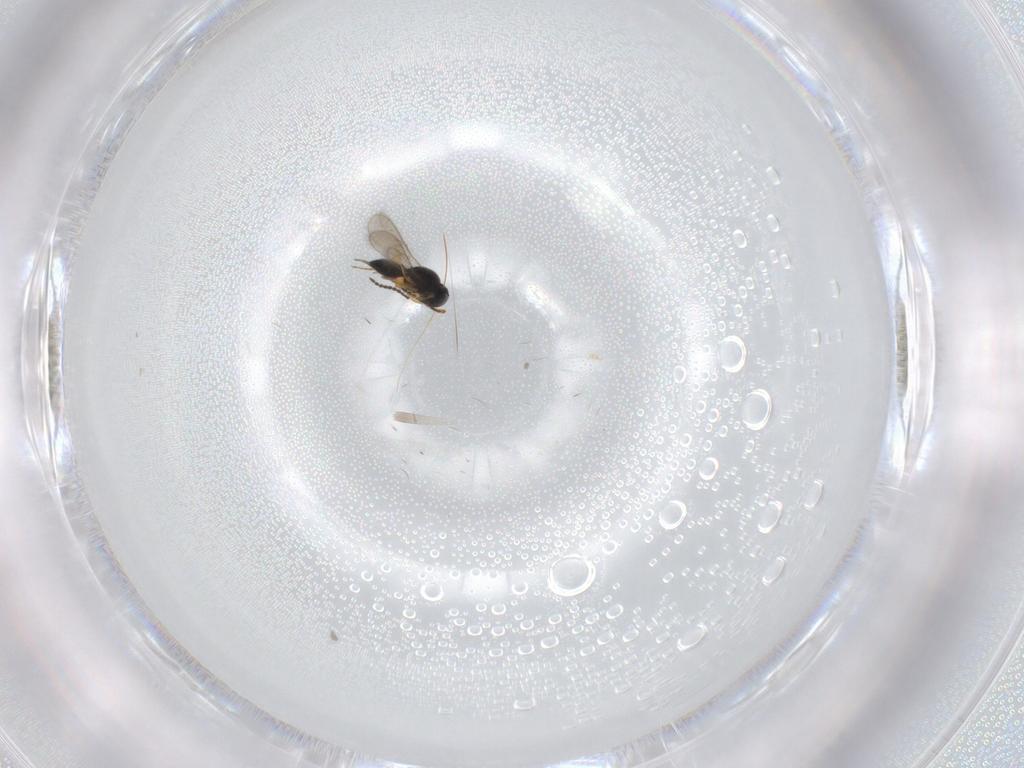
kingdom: Animalia
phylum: Arthropoda
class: Insecta
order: Hymenoptera
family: Scelionidae
